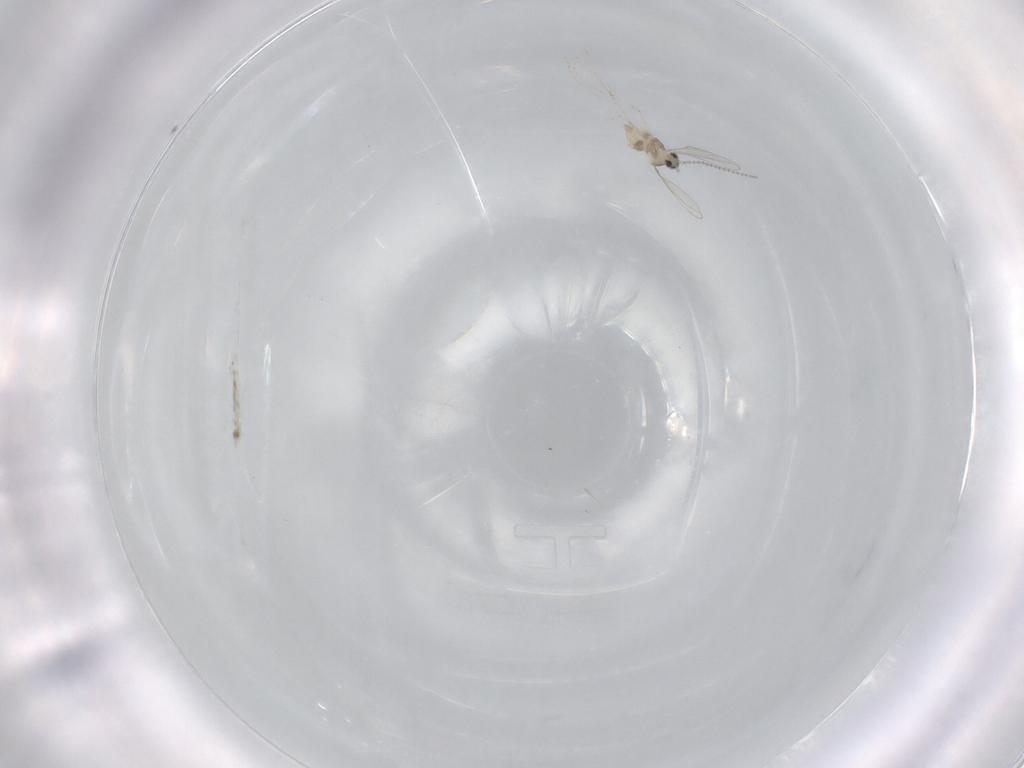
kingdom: Animalia
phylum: Arthropoda
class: Insecta
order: Diptera
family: Cecidomyiidae
